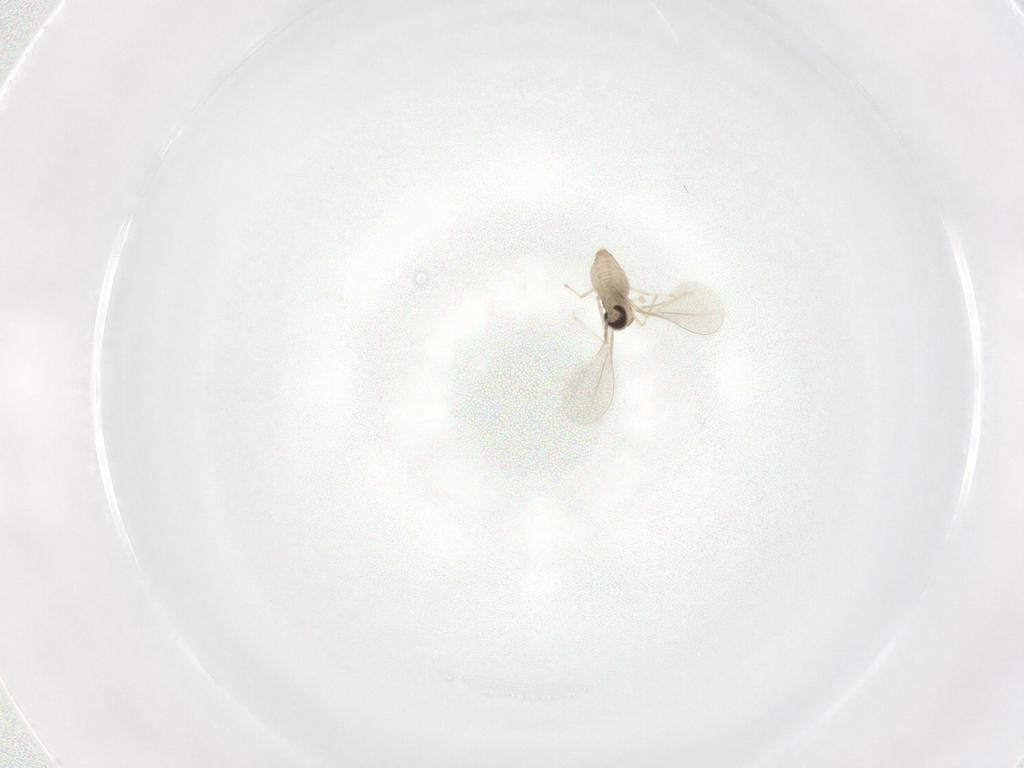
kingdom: Animalia
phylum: Arthropoda
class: Insecta
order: Diptera
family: Cecidomyiidae
